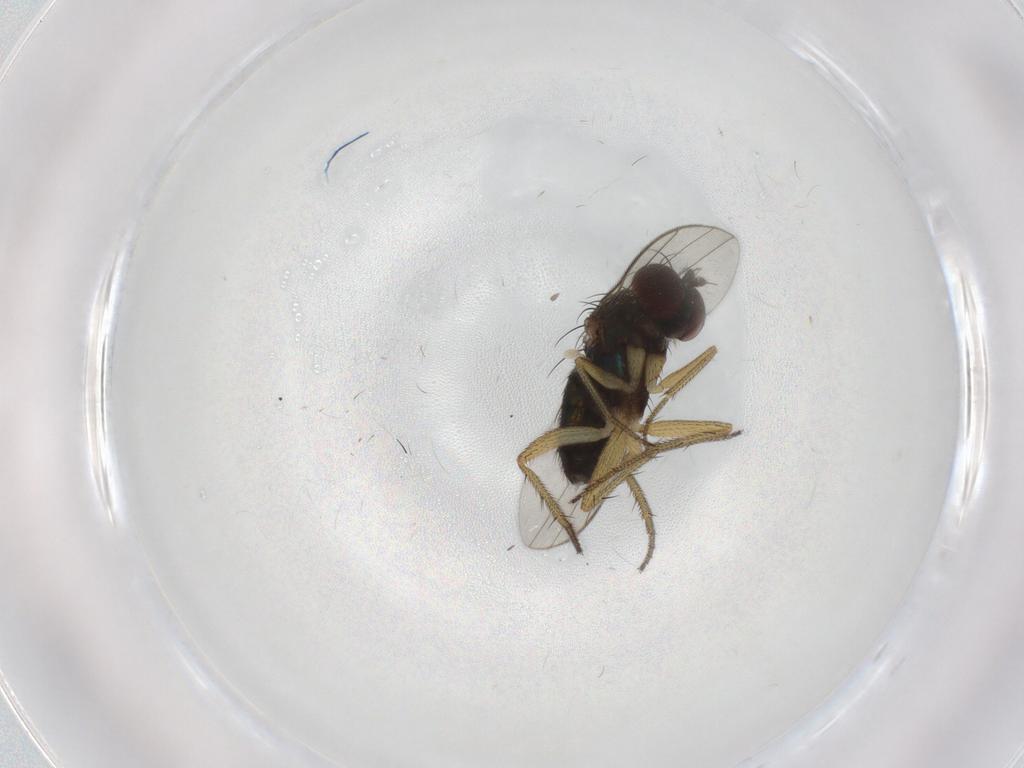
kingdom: Animalia
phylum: Arthropoda
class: Insecta
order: Diptera
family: Dolichopodidae
